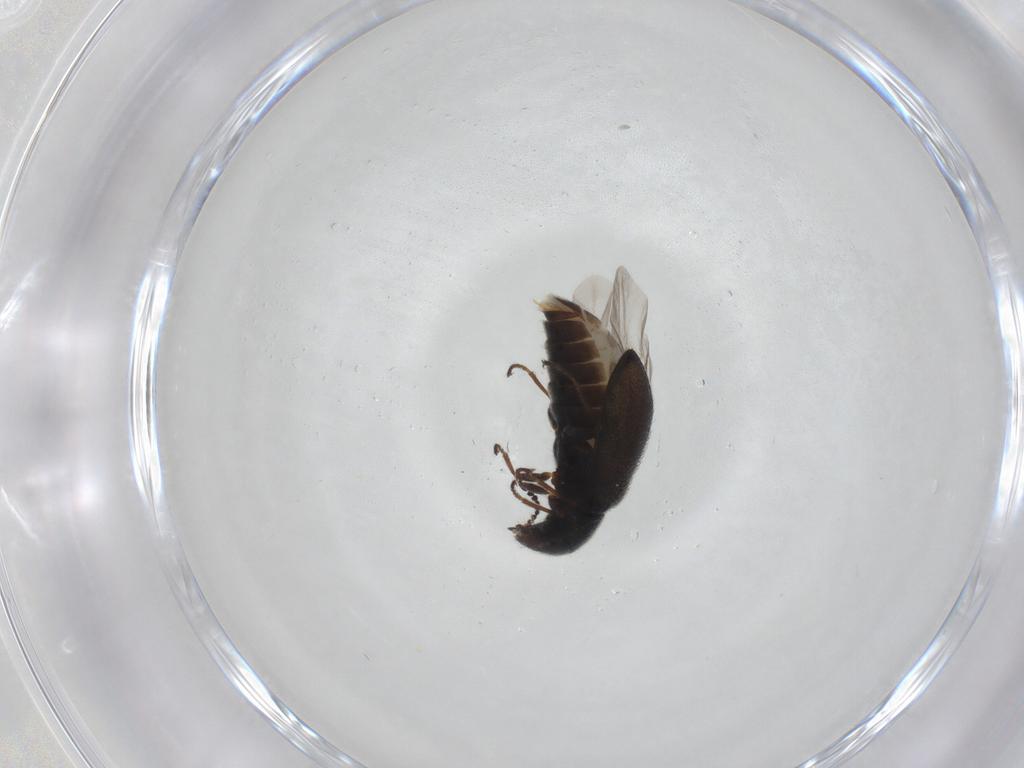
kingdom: Animalia
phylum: Arthropoda
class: Insecta
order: Coleoptera
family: Melyridae
